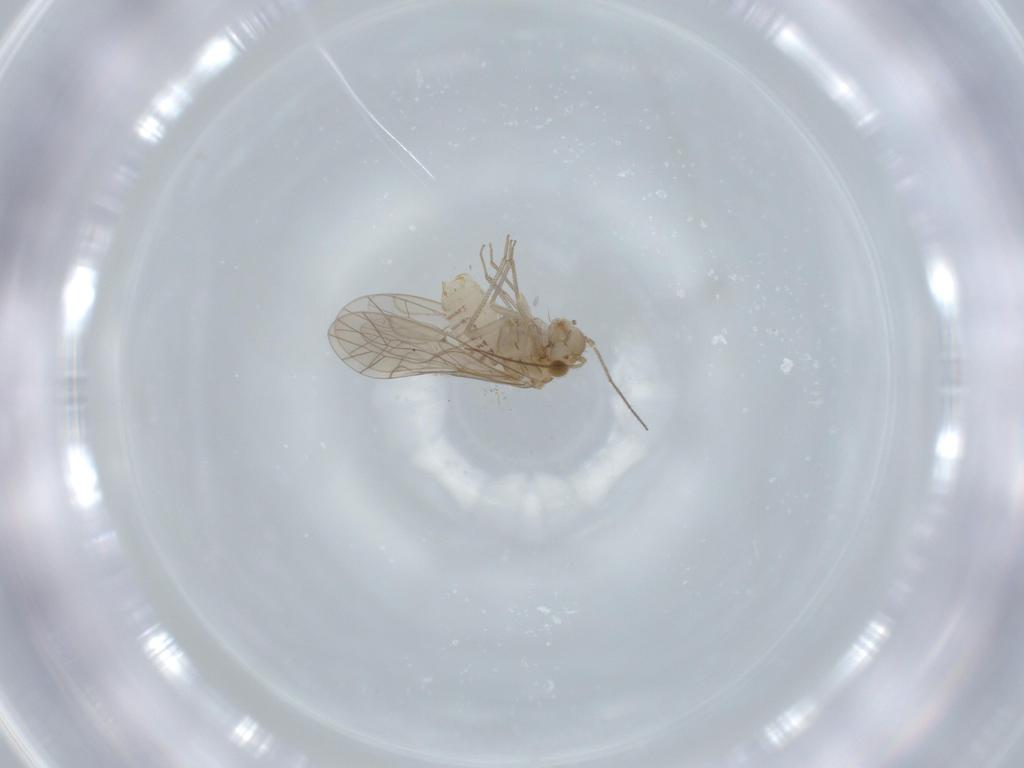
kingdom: Animalia
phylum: Arthropoda
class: Insecta
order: Psocodea
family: Lachesillidae
